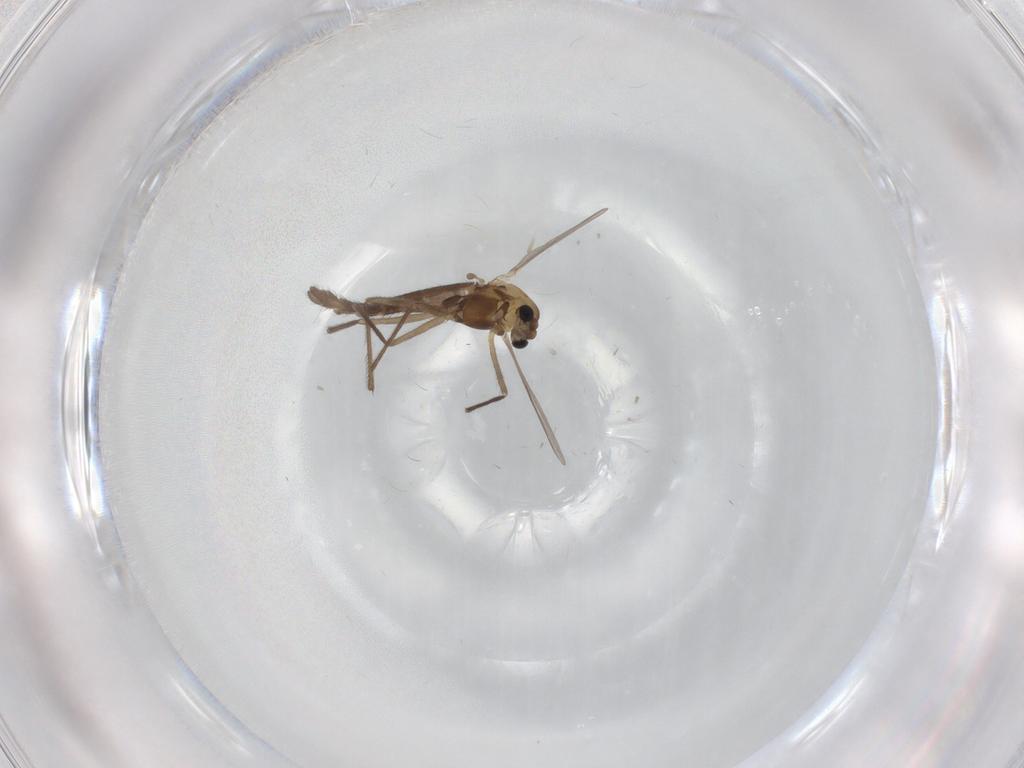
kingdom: Animalia
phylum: Arthropoda
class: Insecta
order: Diptera
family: Chironomidae
